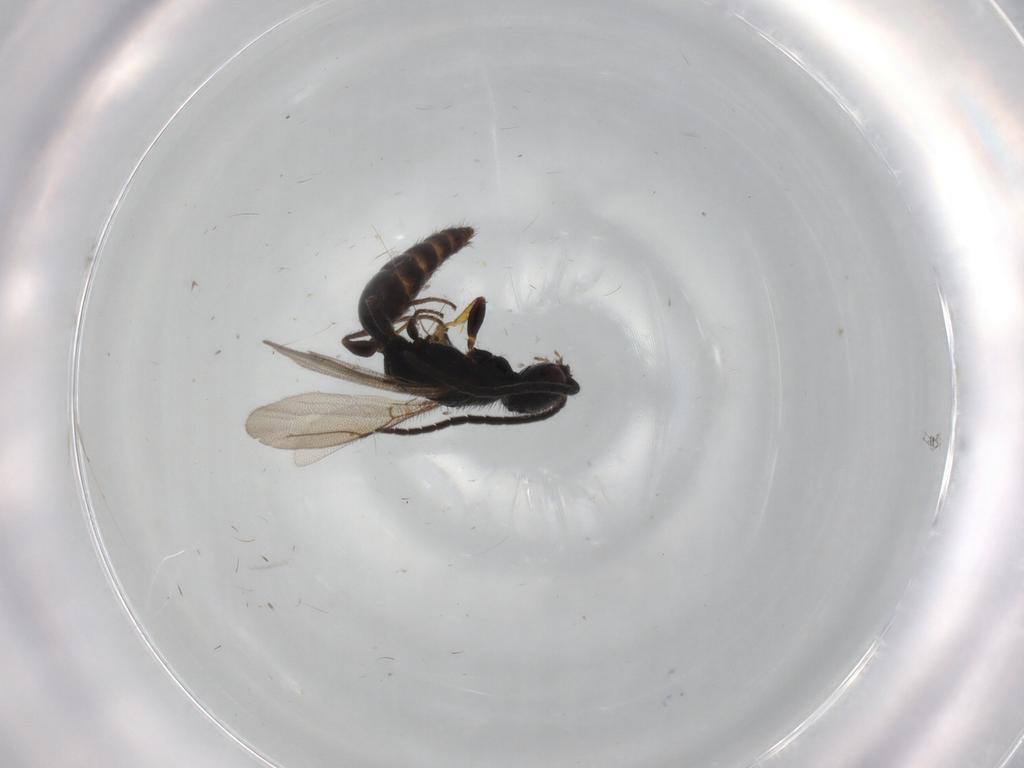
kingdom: Animalia
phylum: Arthropoda
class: Insecta
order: Hymenoptera
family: Bethylidae
